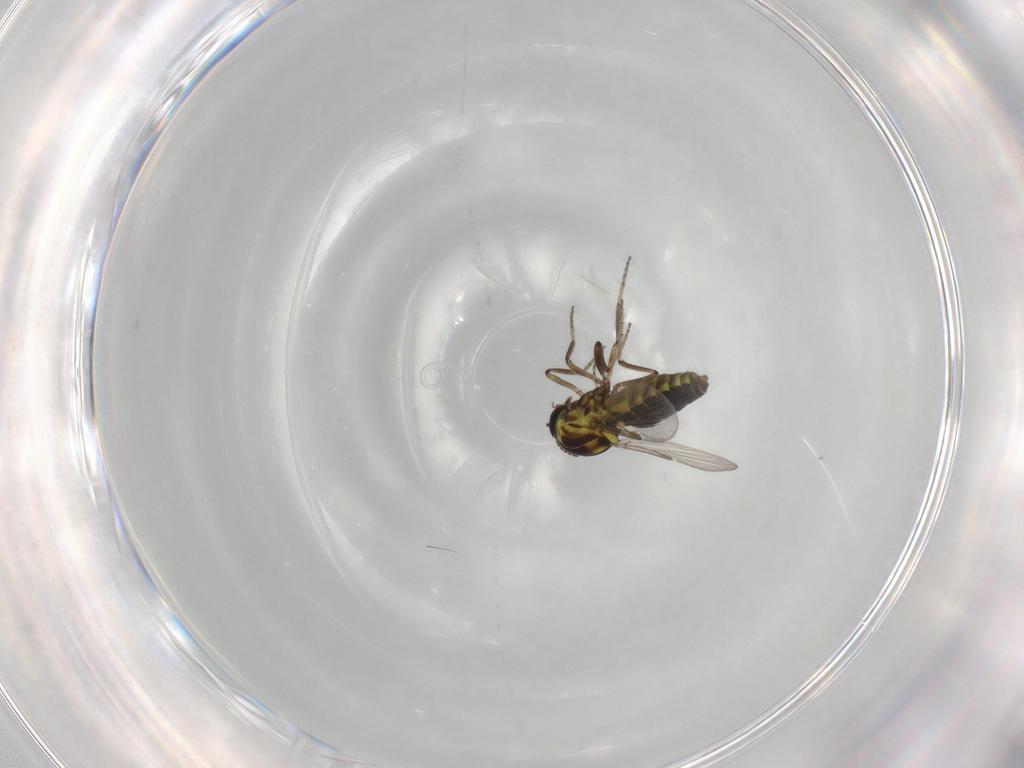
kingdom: Animalia
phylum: Arthropoda
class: Insecta
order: Diptera
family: Ceratopogonidae
